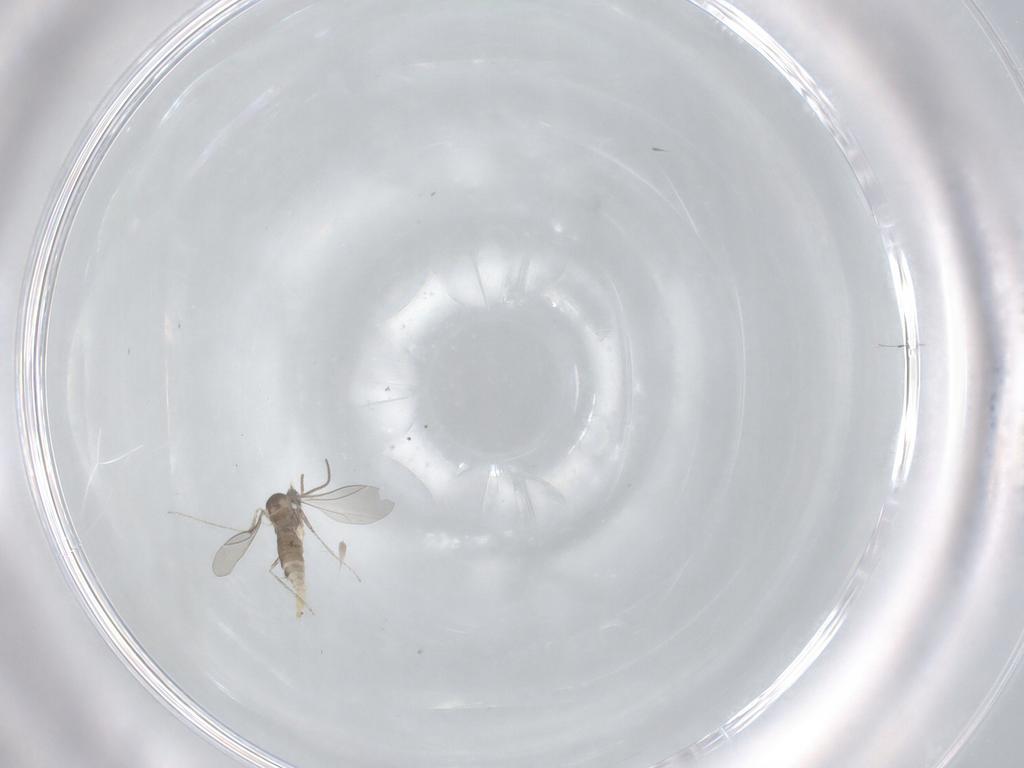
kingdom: Animalia
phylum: Arthropoda
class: Insecta
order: Diptera
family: Cecidomyiidae
